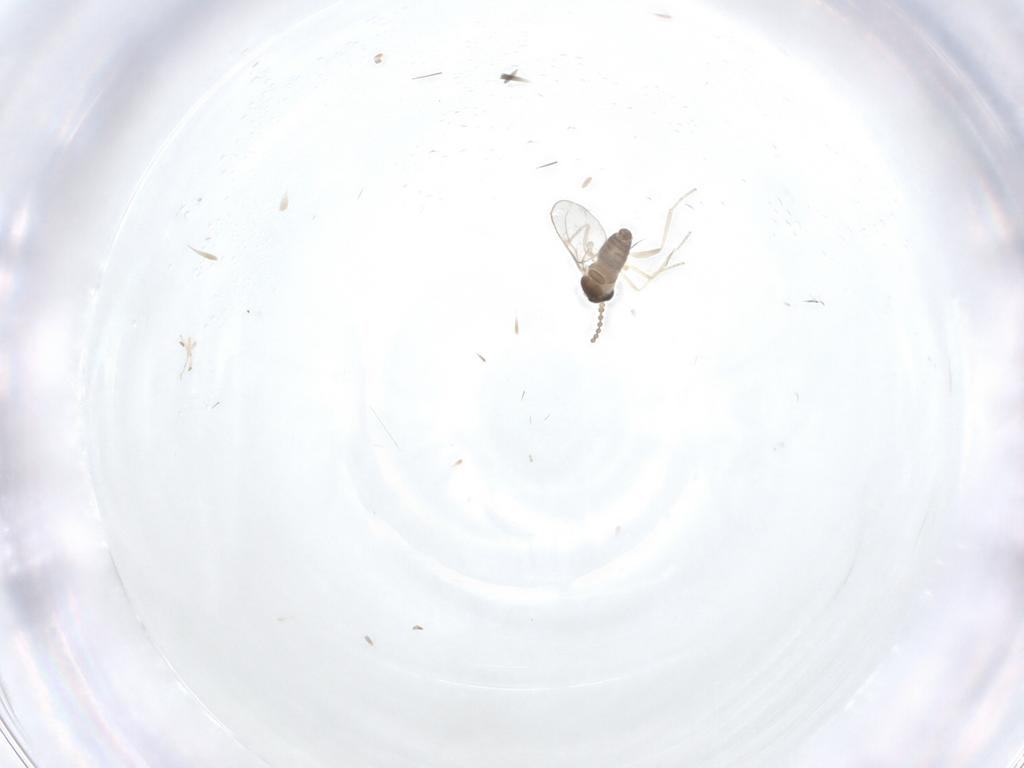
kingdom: Animalia
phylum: Arthropoda
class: Insecta
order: Diptera
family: Cecidomyiidae
